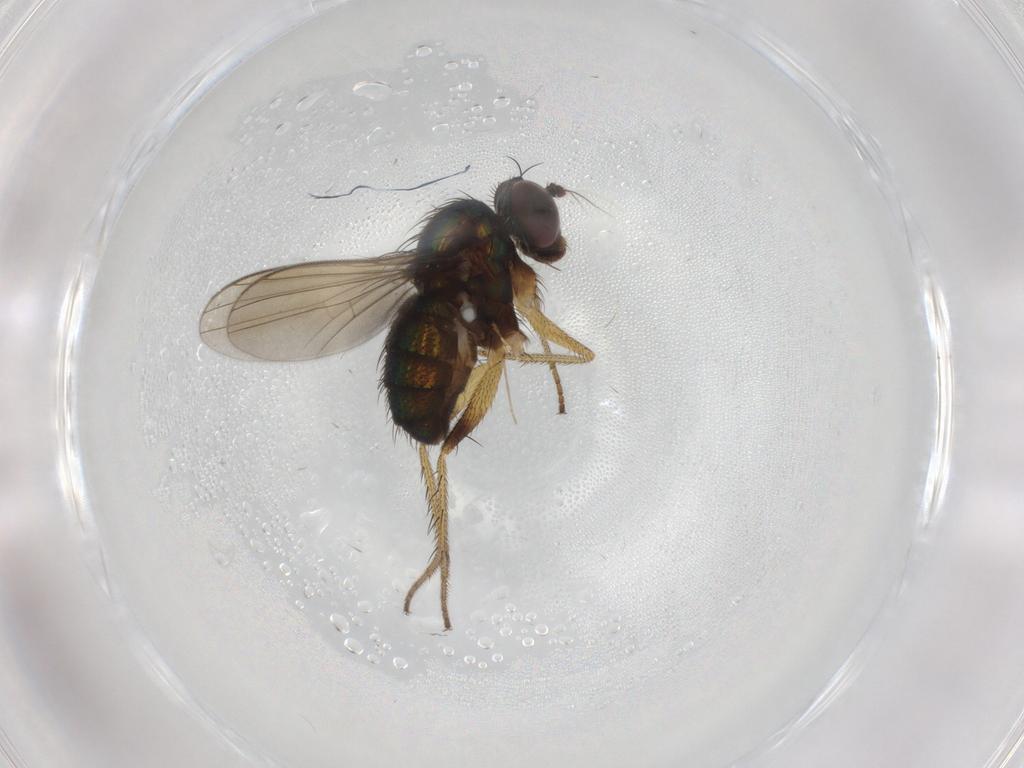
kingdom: Animalia
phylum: Arthropoda
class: Insecta
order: Diptera
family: Dolichopodidae
